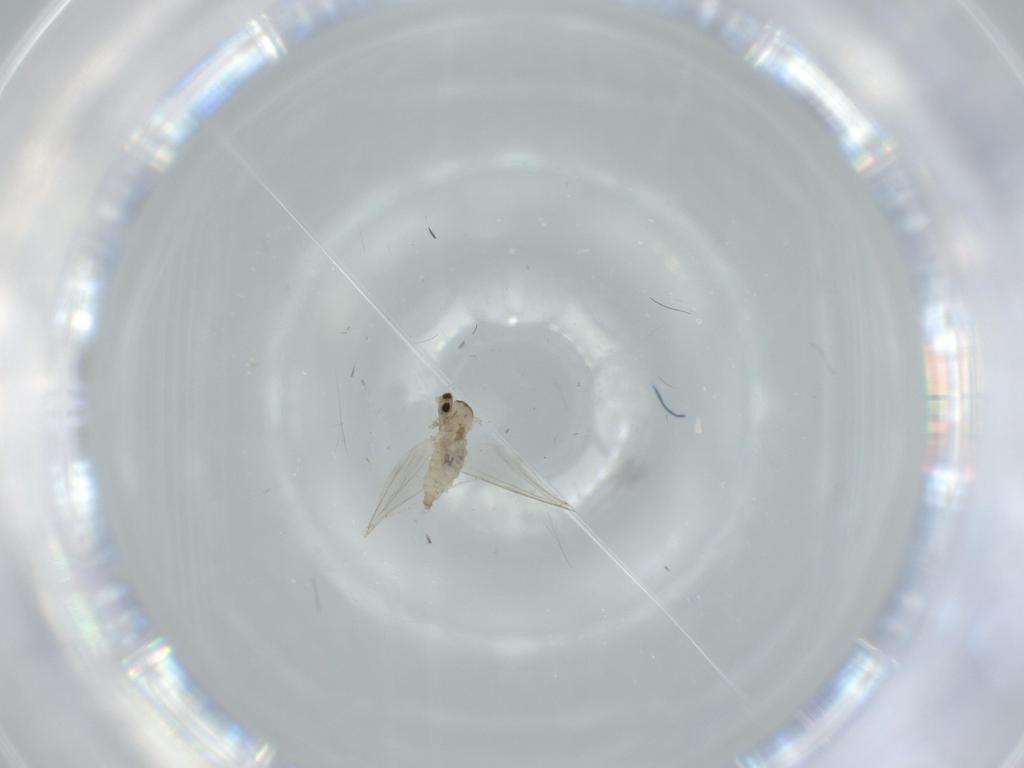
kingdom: Animalia
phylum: Arthropoda
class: Insecta
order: Diptera
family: Cecidomyiidae
